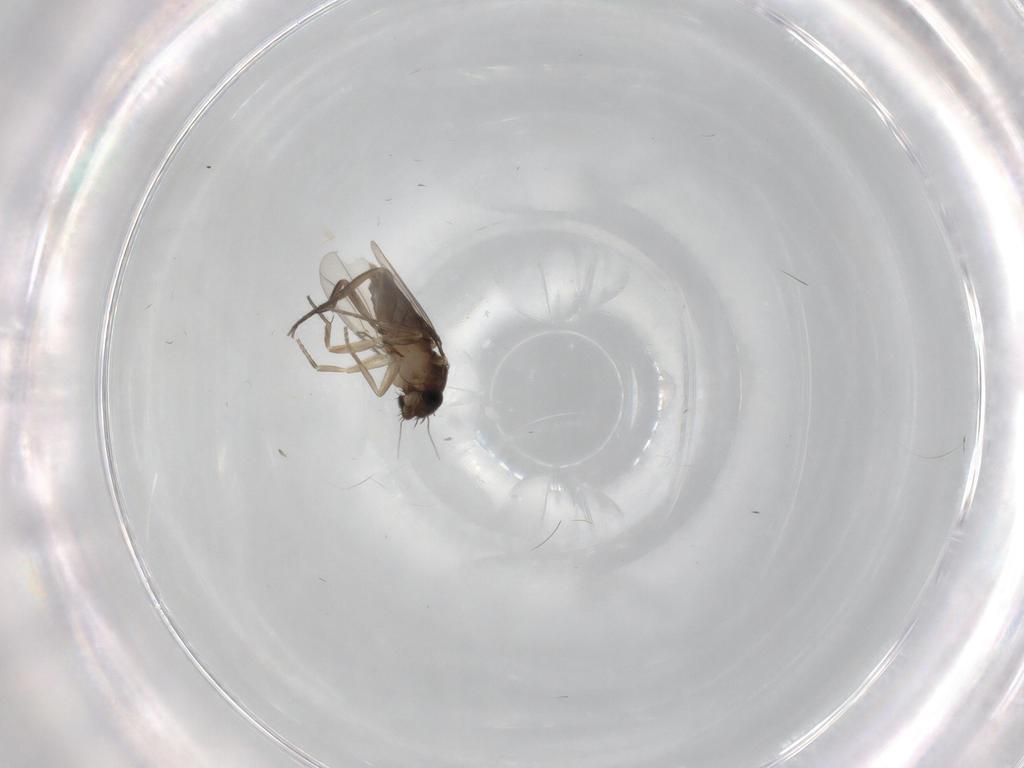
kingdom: Animalia
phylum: Arthropoda
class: Insecta
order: Diptera
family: Phoridae
